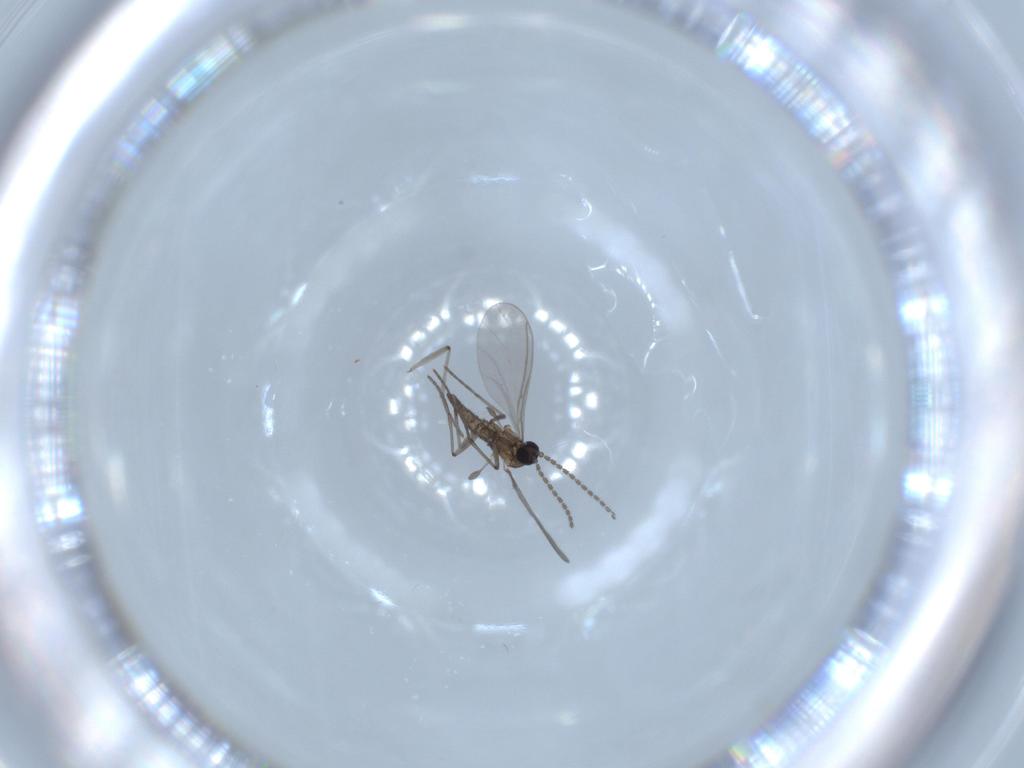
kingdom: Animalia
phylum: Arthropoda
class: Insecta
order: Diptera
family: Sciaridae
